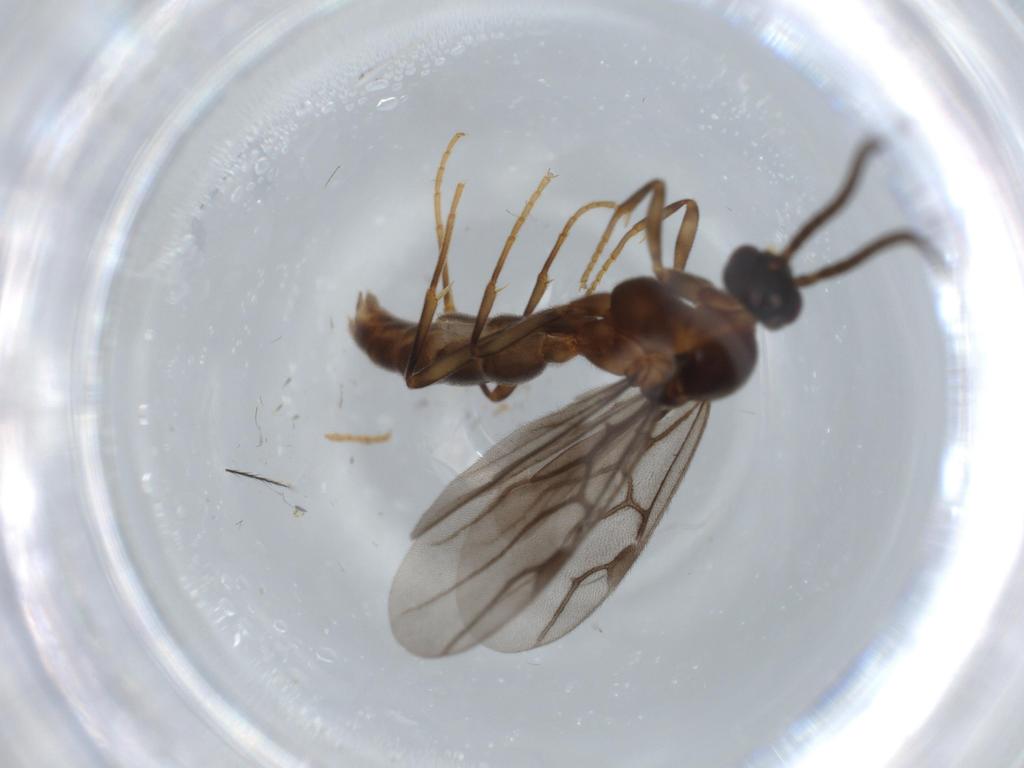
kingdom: Animalia
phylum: Arthropoda
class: Insecta
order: Hymenoptera
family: Formicidae
